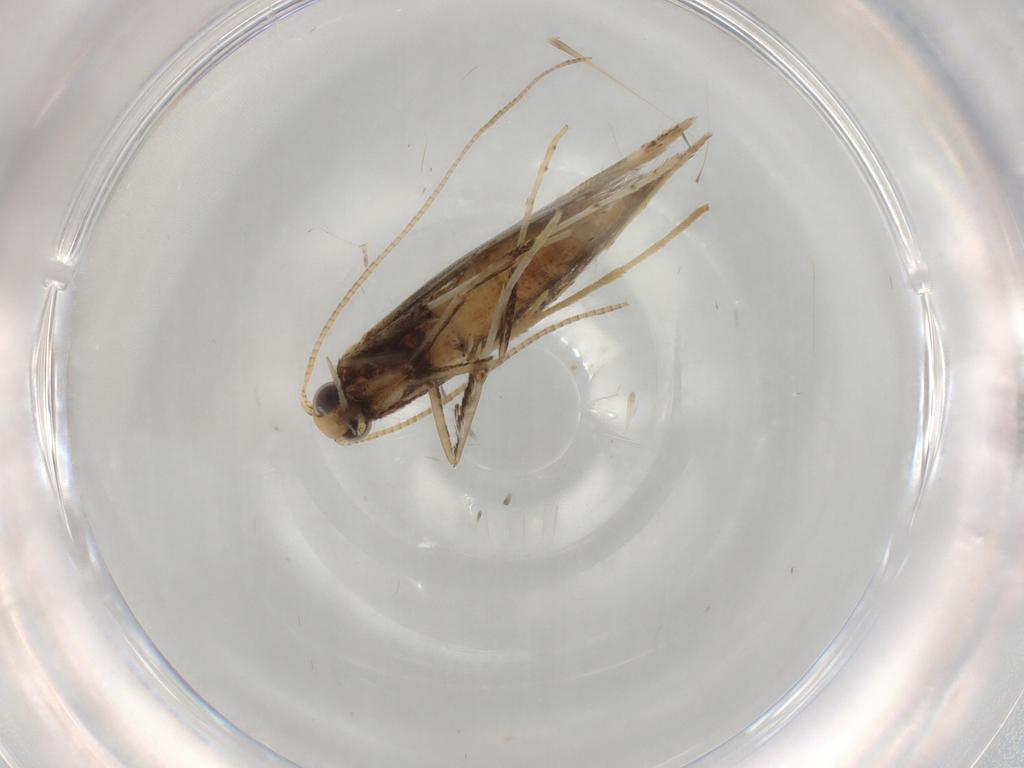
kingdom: Animalia
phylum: Arthropoda
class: Insecta
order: Lepidoptera
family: Gracillariidae
